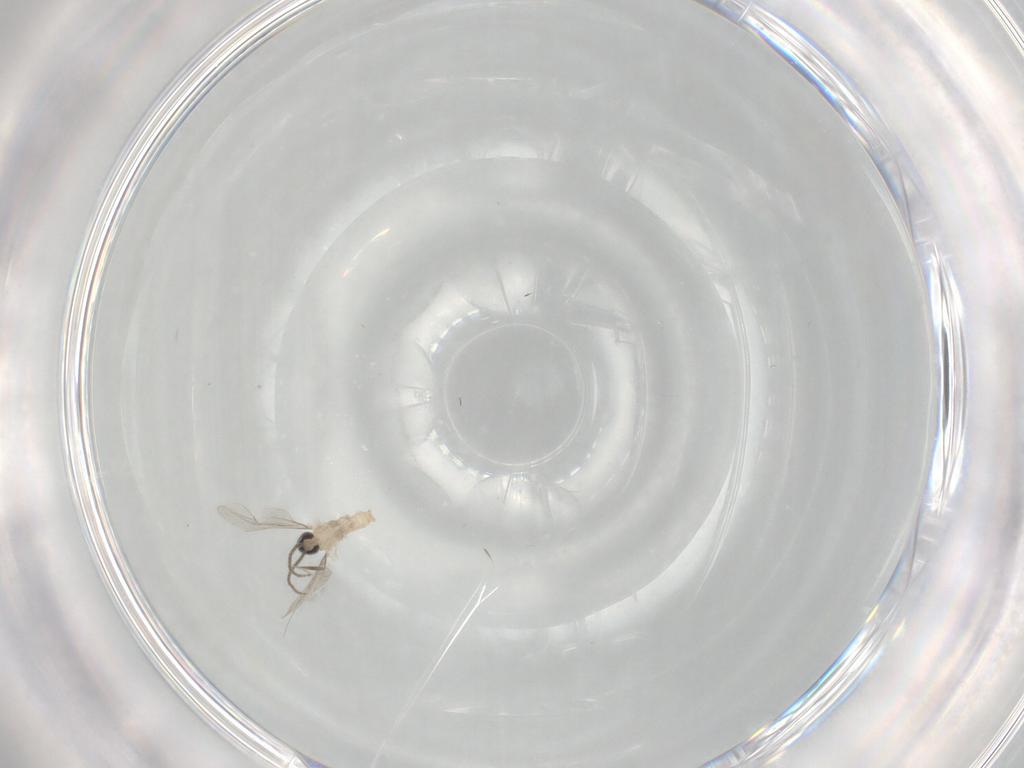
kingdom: Animalia
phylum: Arthropoda
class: Insecta
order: Diptera
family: Cecidomyiidae
